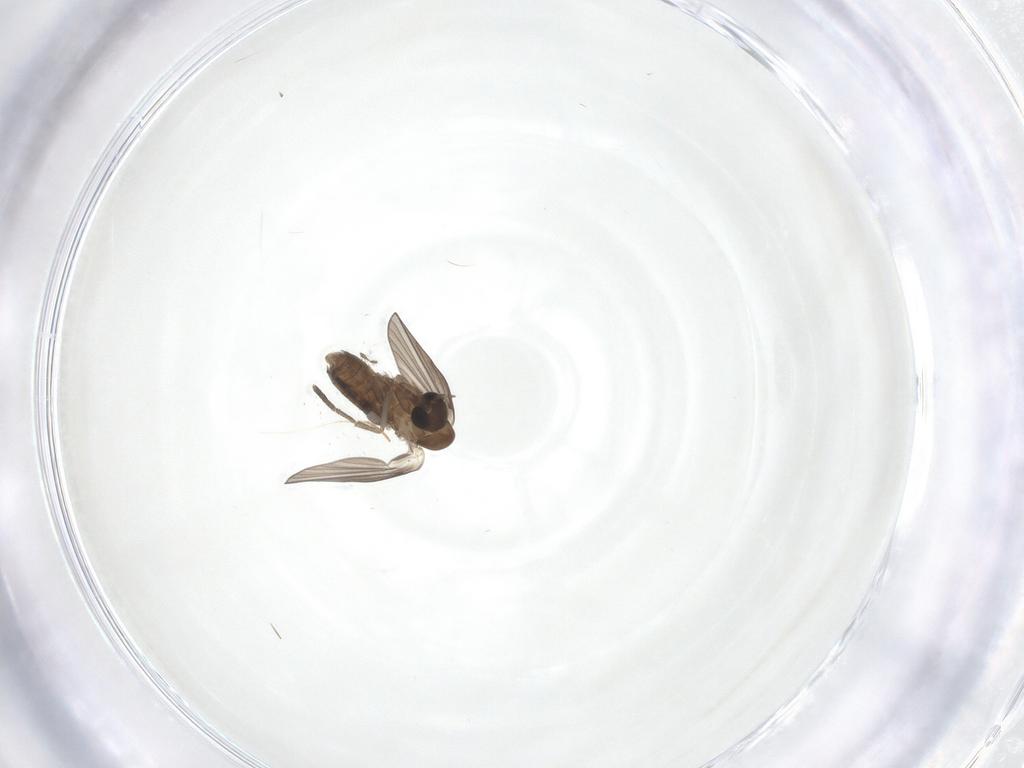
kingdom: Animalia
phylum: Arthropoda
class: Insecta
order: Diptera
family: Psychodidae
